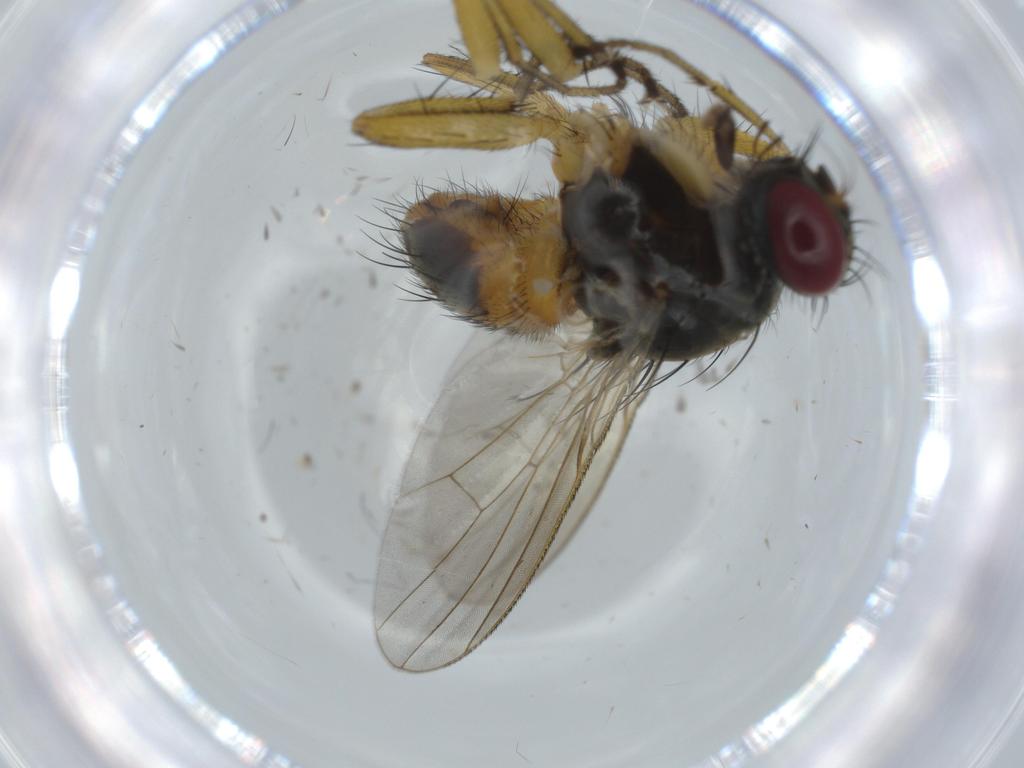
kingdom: Animalia
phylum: Arthropoda
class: Insecta
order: Diptera
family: Muscidae
